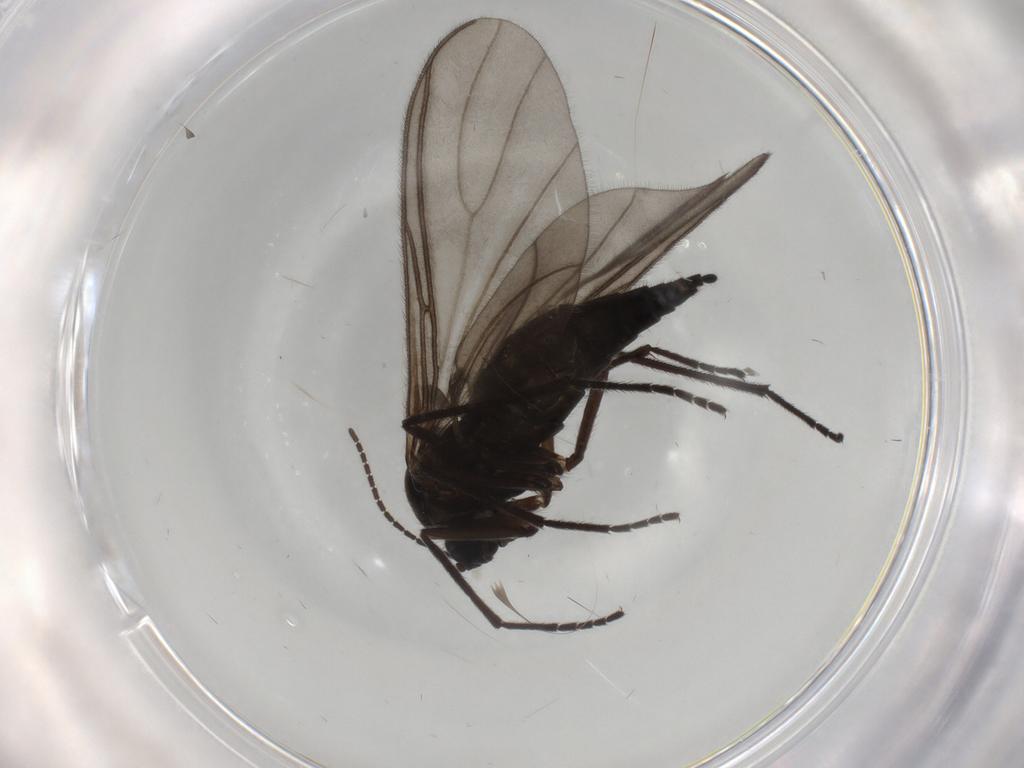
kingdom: Animalia
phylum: Arthropoda
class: Insecta
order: Diptera
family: Sciaridae
